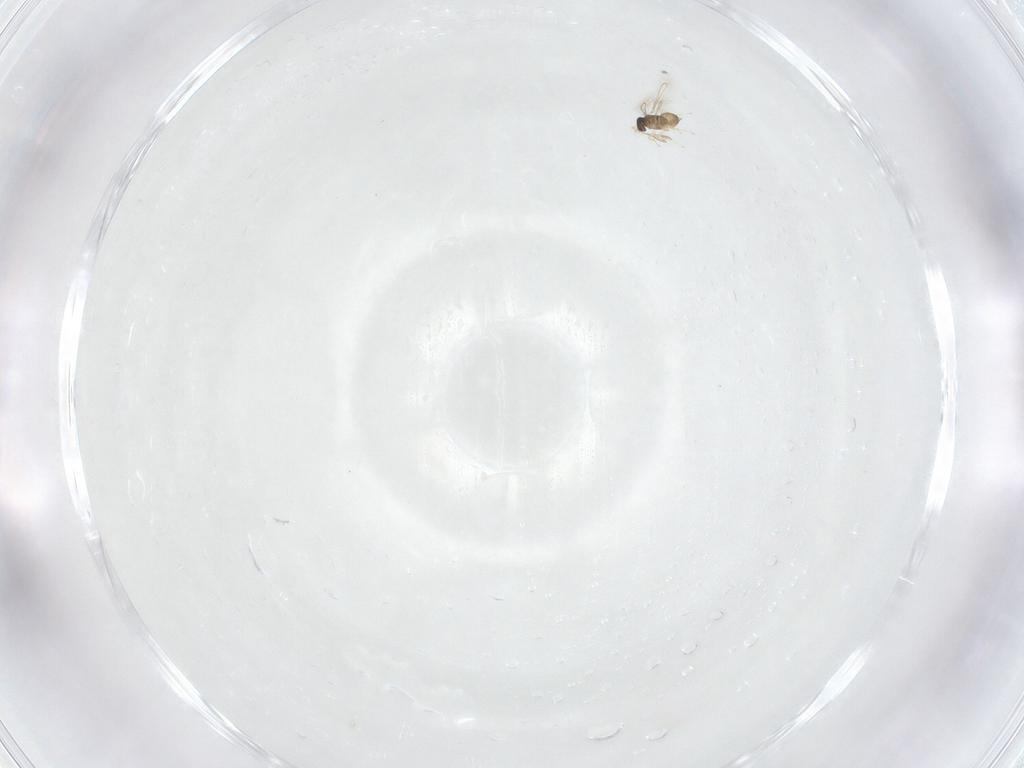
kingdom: Animalia
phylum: Arthropoda
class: Insecta
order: Hymenoptera
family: Mymaridae
